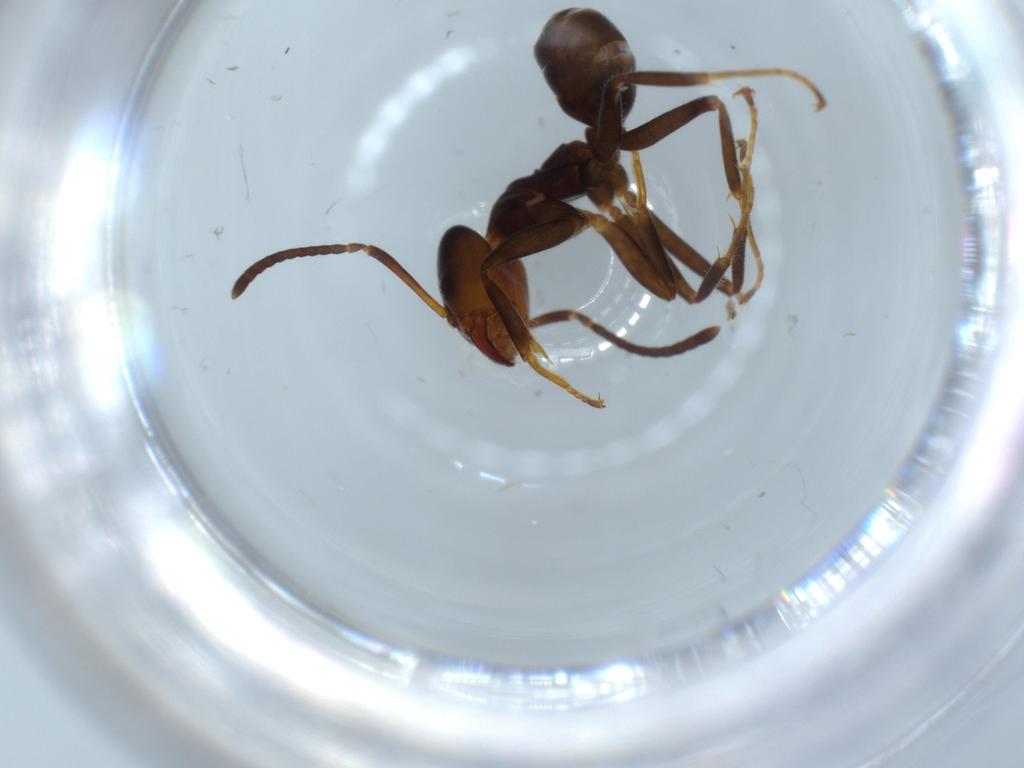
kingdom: Animalia
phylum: Arthropoda
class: Insecta
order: Hymenoptera
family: Formicidae
